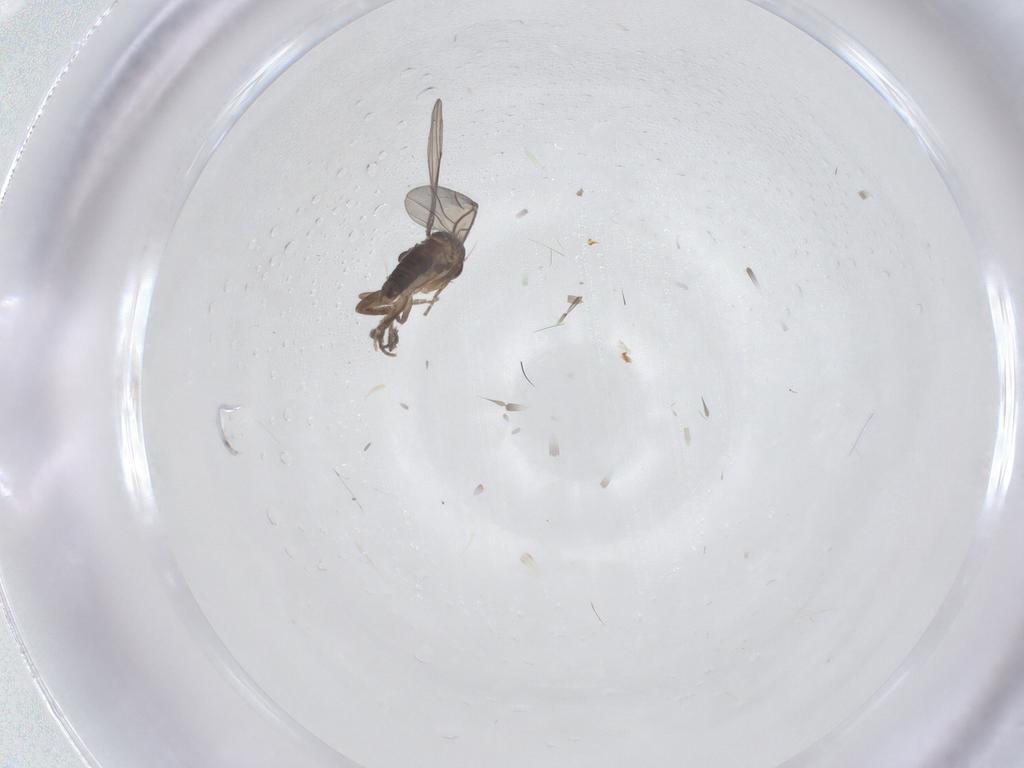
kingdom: Animalia
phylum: Arthropoda
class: Insecta
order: Diptera
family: Chironomidae
